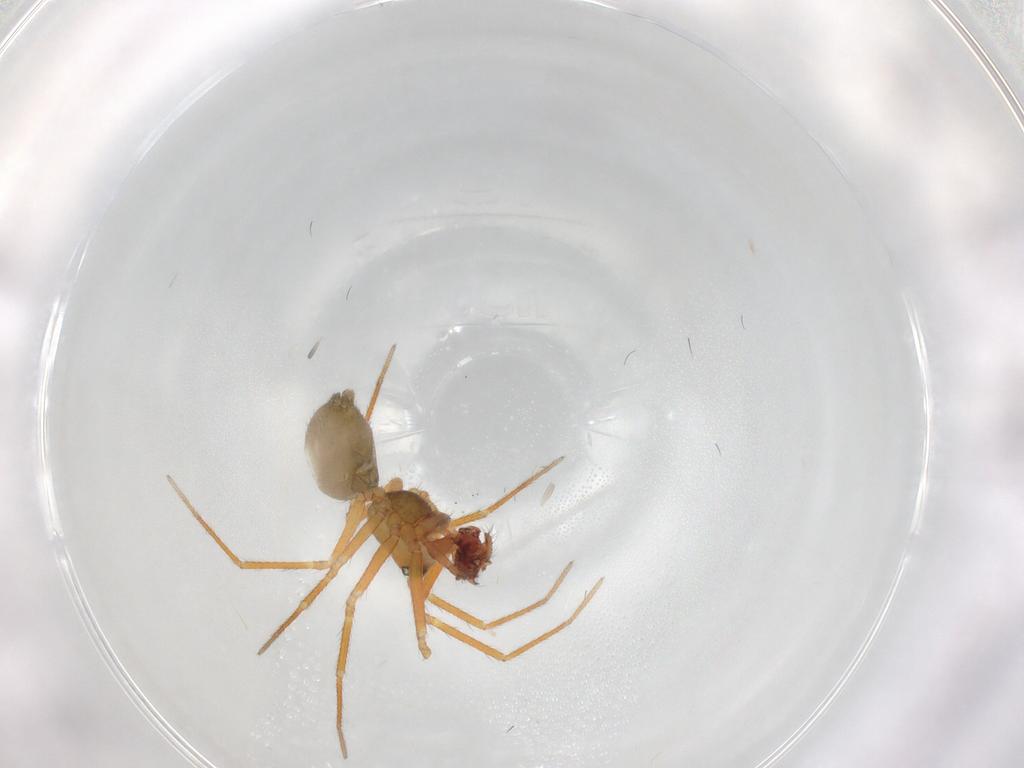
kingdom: Animalia
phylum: Arthropoda
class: Arachnida
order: Araneae
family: Linyphiidae
